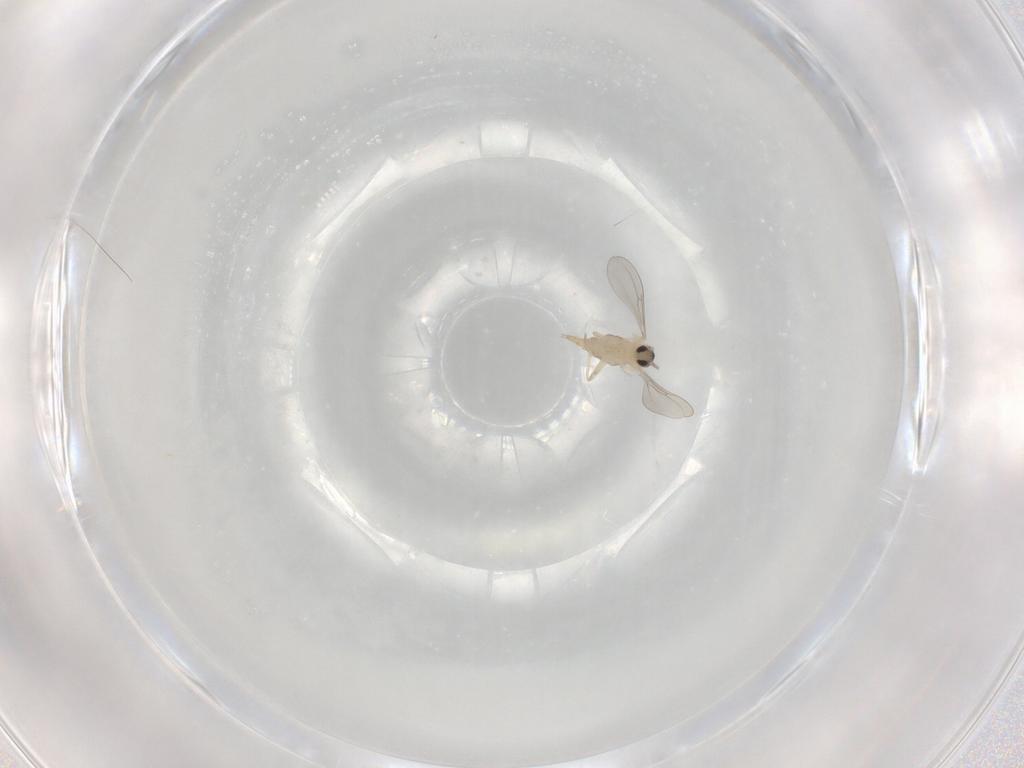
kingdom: Animalia
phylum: Arthropoda
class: Insecta
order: Diptera
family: Cecidomyiidae
